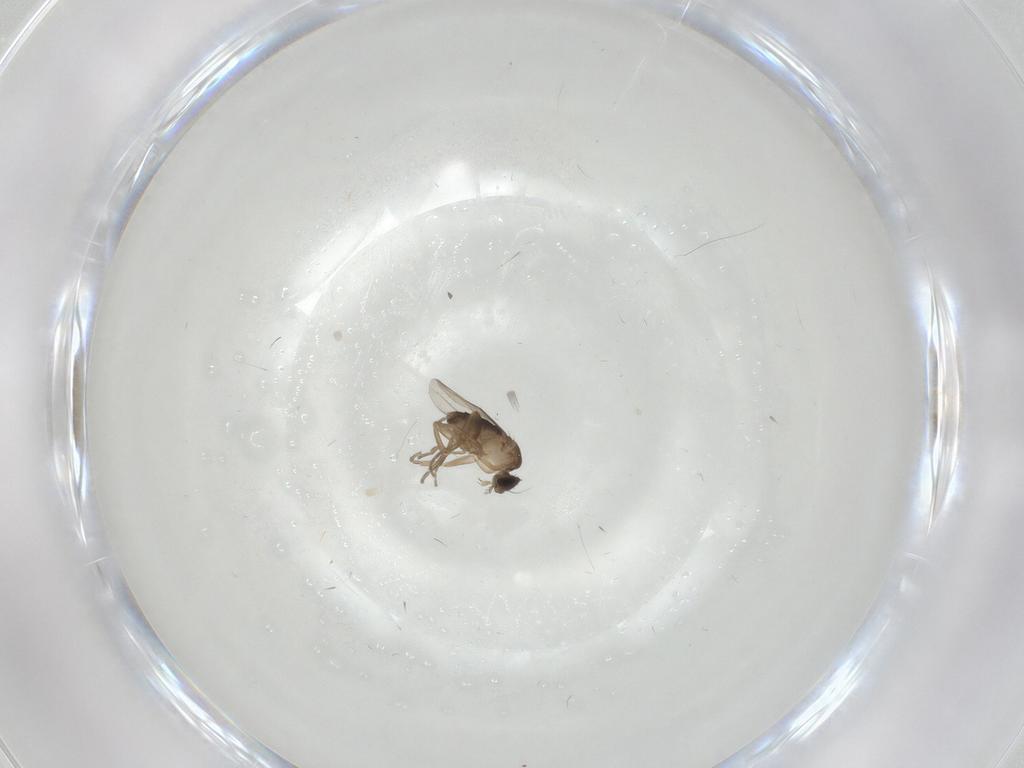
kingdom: Animalia
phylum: Arthropoda
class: Insecta
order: Diptera
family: Phoridae
